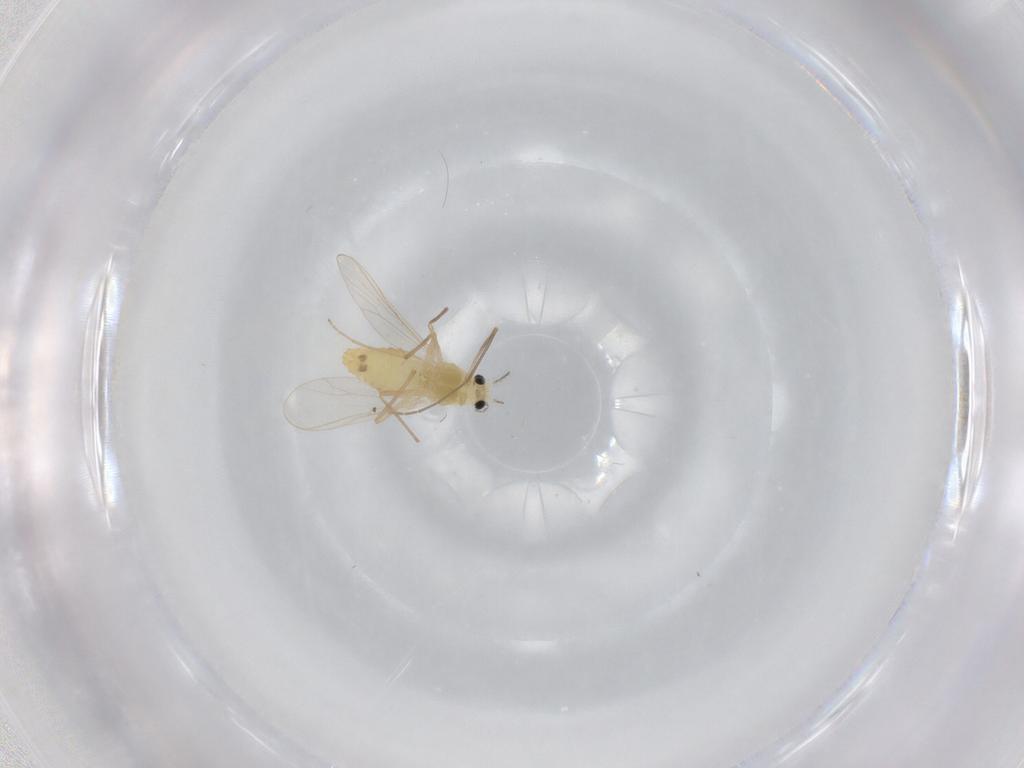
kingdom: Animalia
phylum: Arthropoda
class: Insecta
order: Diptera
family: Chironomidae
